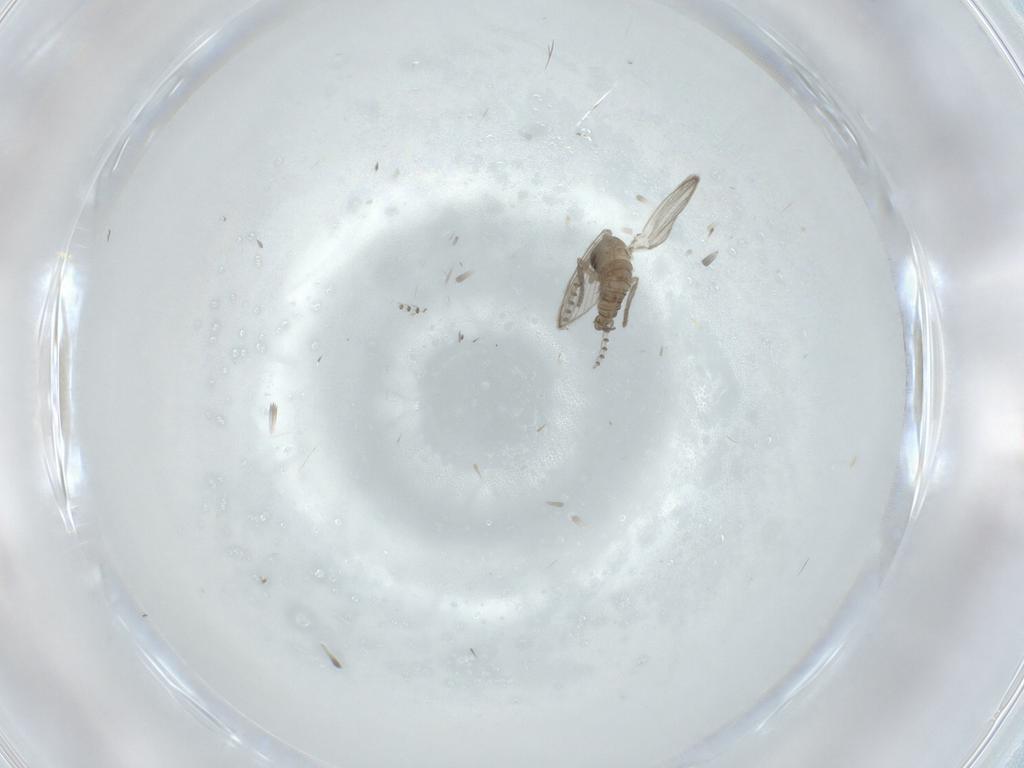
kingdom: Animalia
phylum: Arthropoda
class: Insecta
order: Diptera
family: Psychodidae
